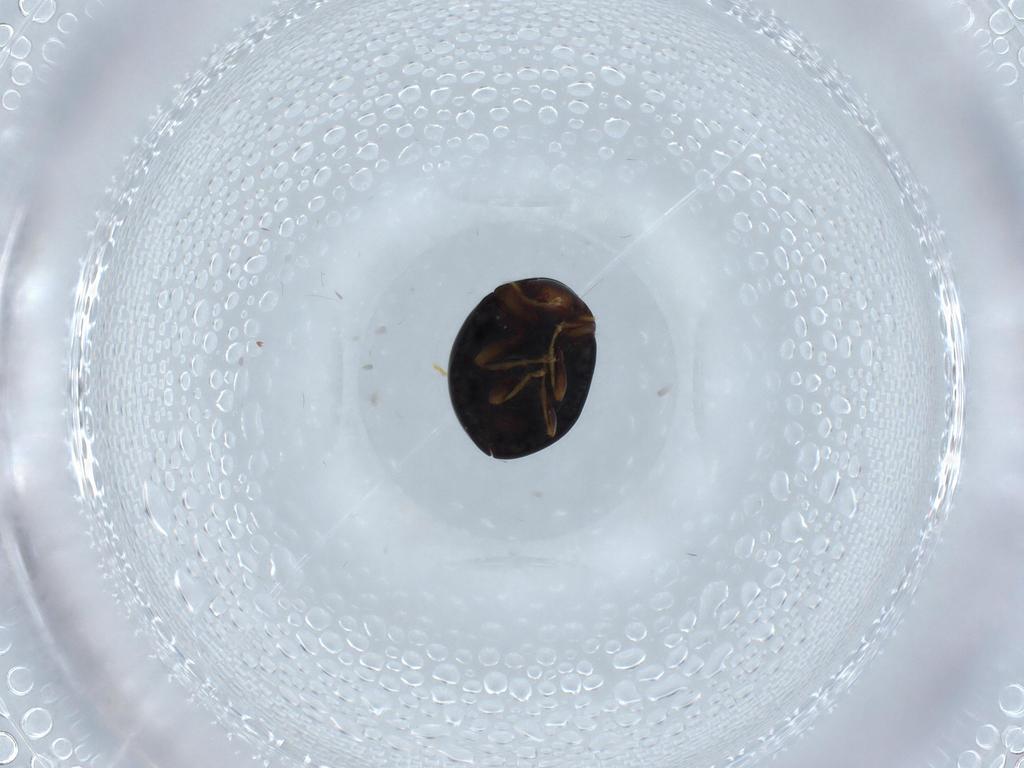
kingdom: Animalia
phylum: Arthropoda
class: Insecta
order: Coleoptera
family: Coccinellidae
